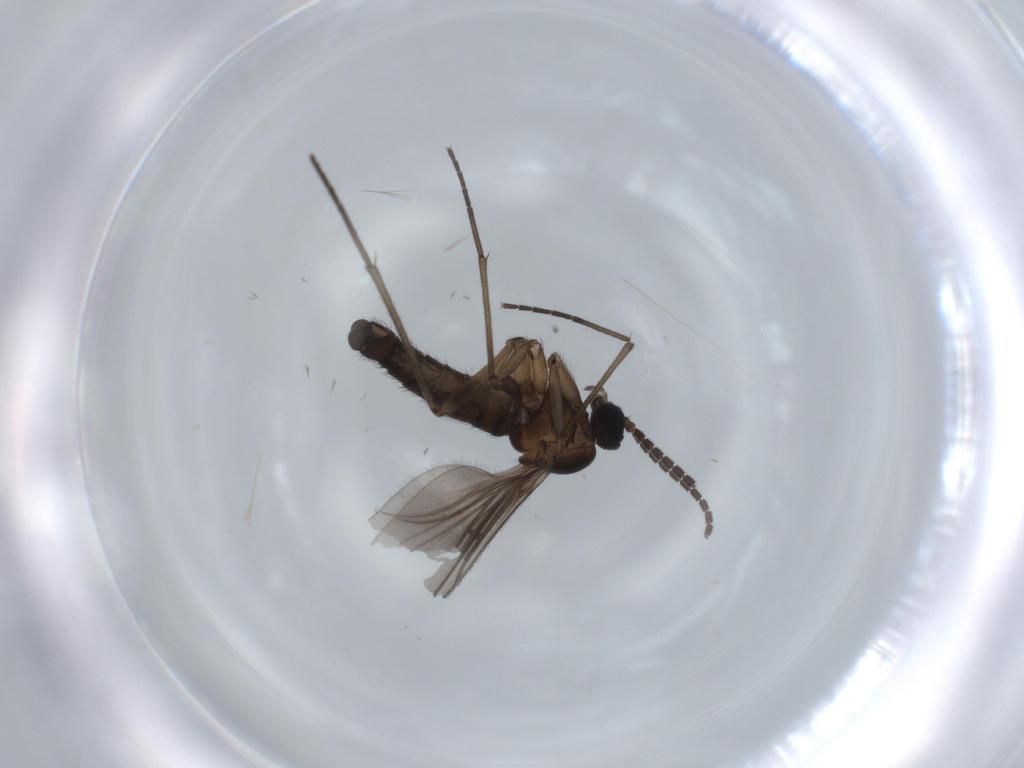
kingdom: Animalia
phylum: Arthropoda
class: Insecta
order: Diptera
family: Sciaridae
